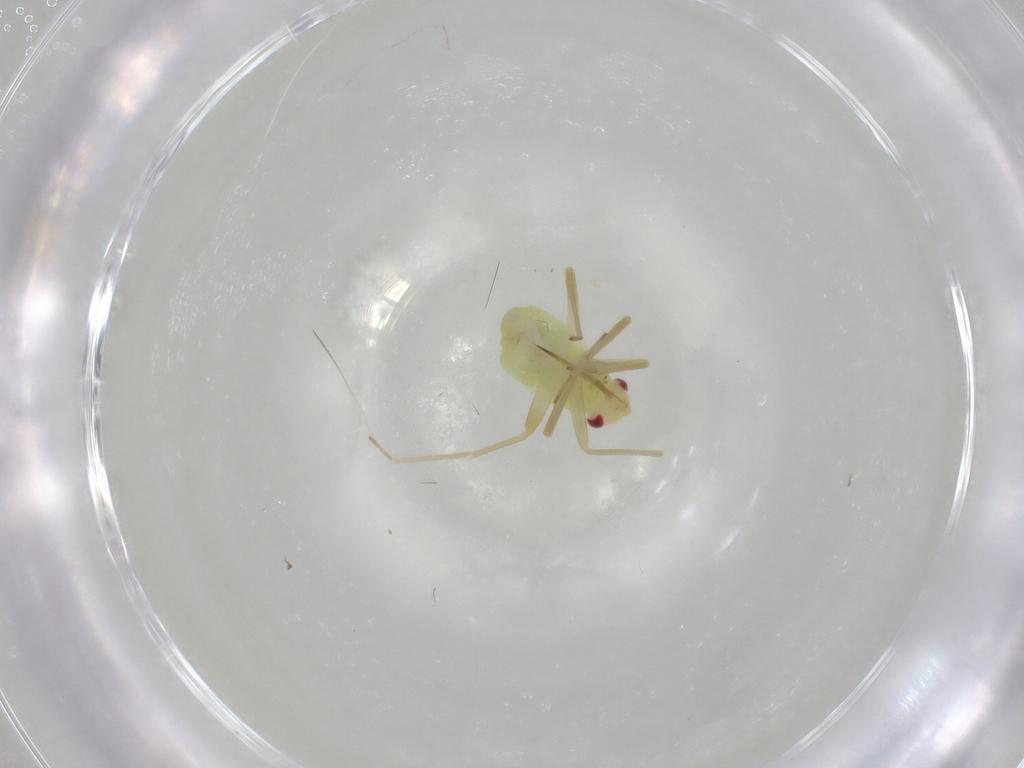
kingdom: Animalia
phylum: Arthropoda
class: Insecta
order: Hemiptera
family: Miridae
